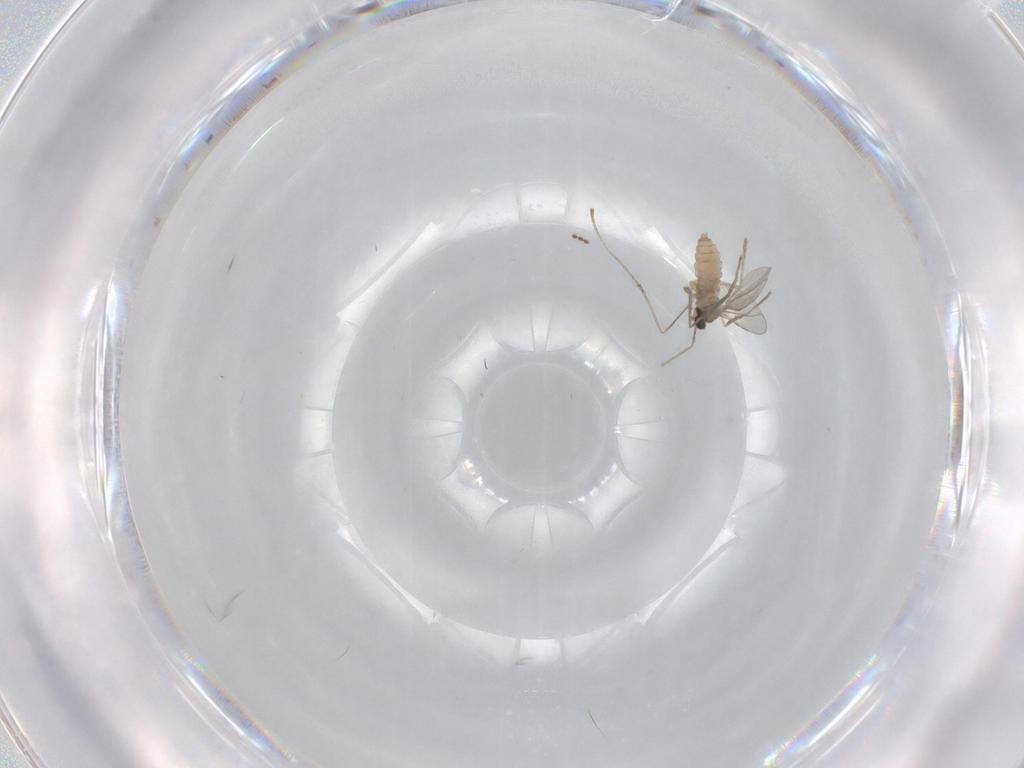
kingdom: Animalia
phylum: Arthropoda
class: Insecta
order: Diptera
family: Cecidomyiidae
